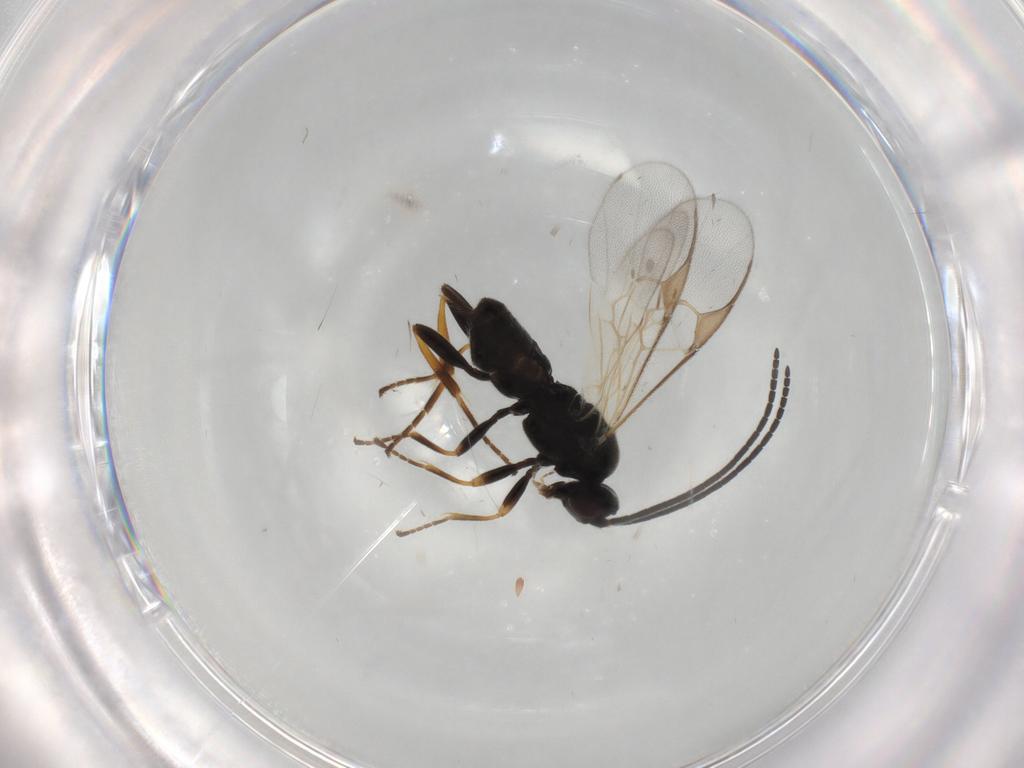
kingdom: Animalia
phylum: Arthropoda
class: Insecta
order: Hymenoptera
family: Braconidae
